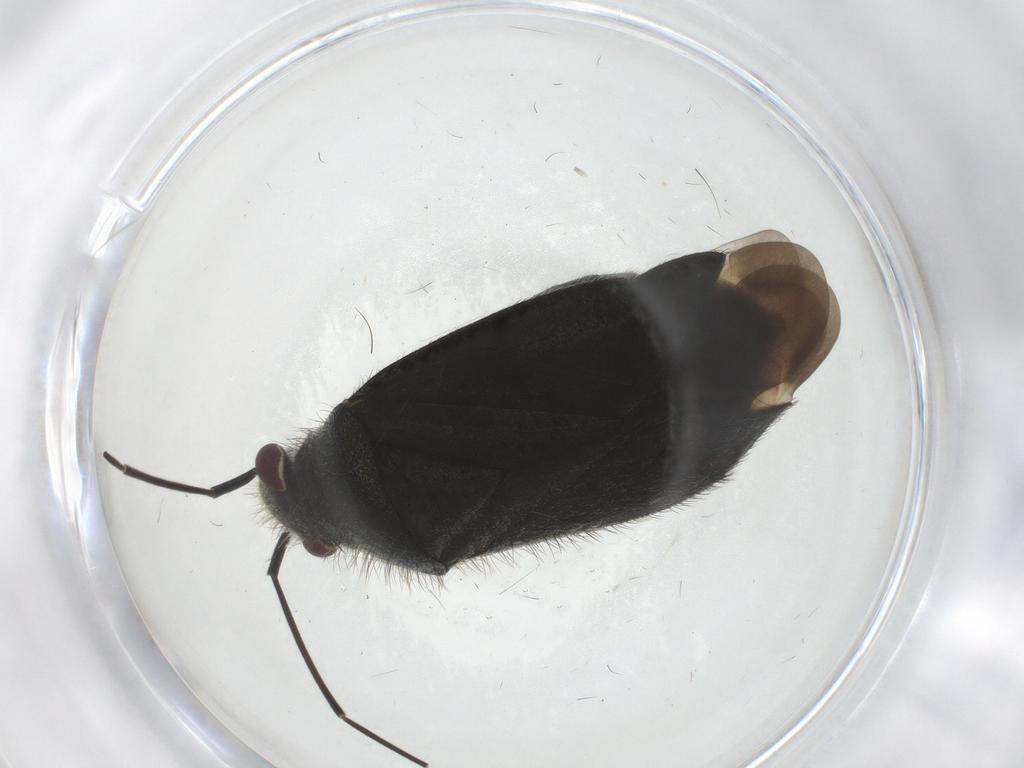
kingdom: Animalia
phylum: Arthropoda
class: Insecta
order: Hemiptera
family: Miridae
